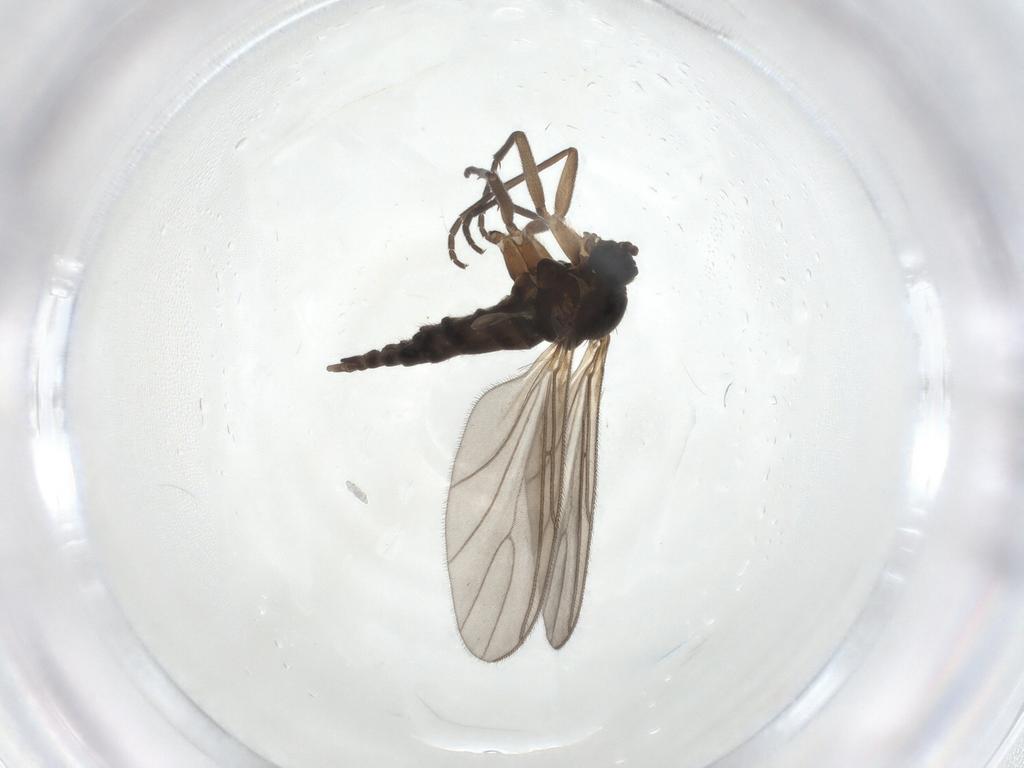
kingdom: Animalia
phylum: Arthropoda
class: Insecta
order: Diptera
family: Sciaridae
